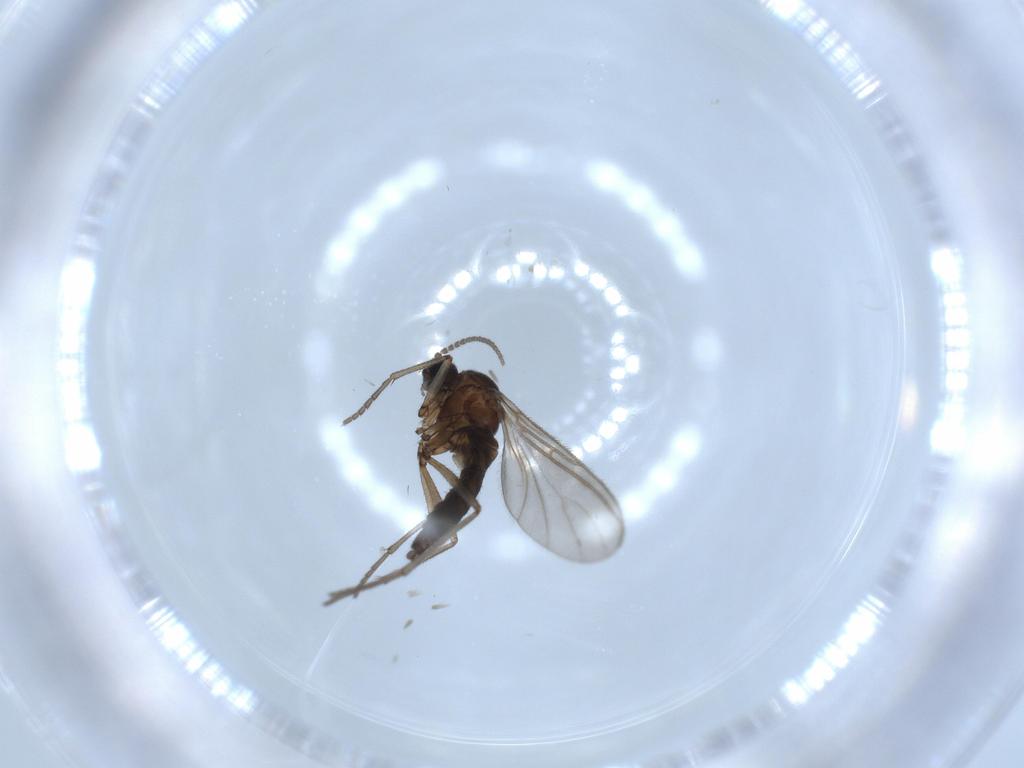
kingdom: Animalia
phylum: Arthropoda
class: Insecta
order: Diptera
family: Sciaridae
